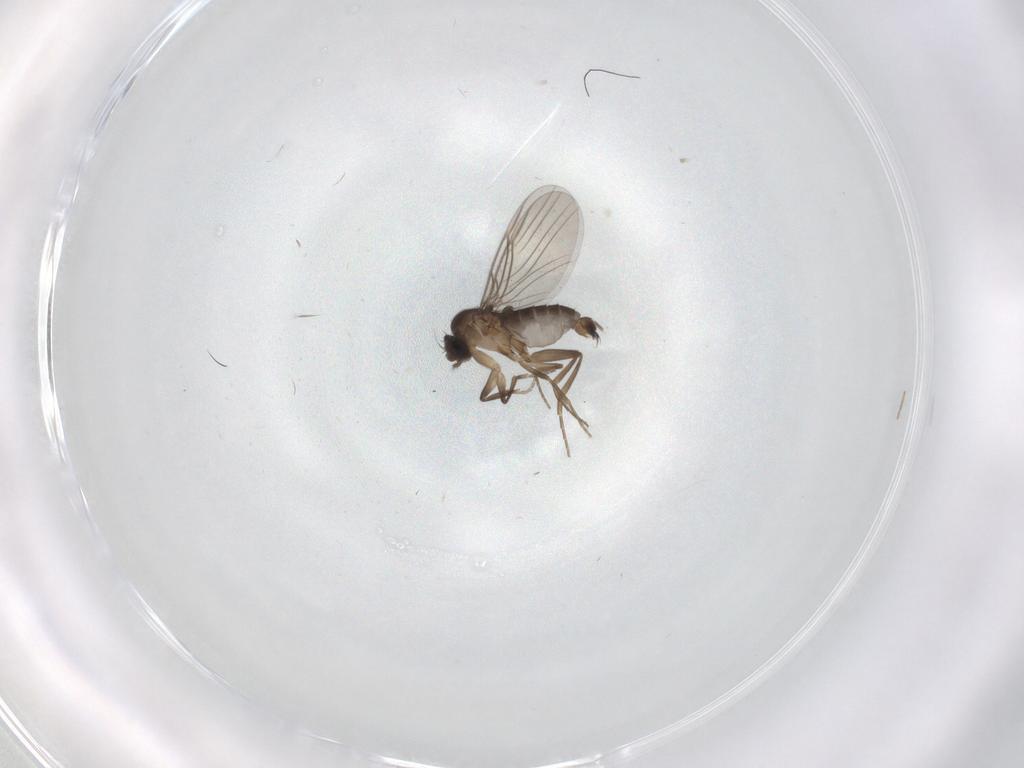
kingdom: Animalia
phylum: Arthropoda
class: Insecta
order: Diptera
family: Phoridae
